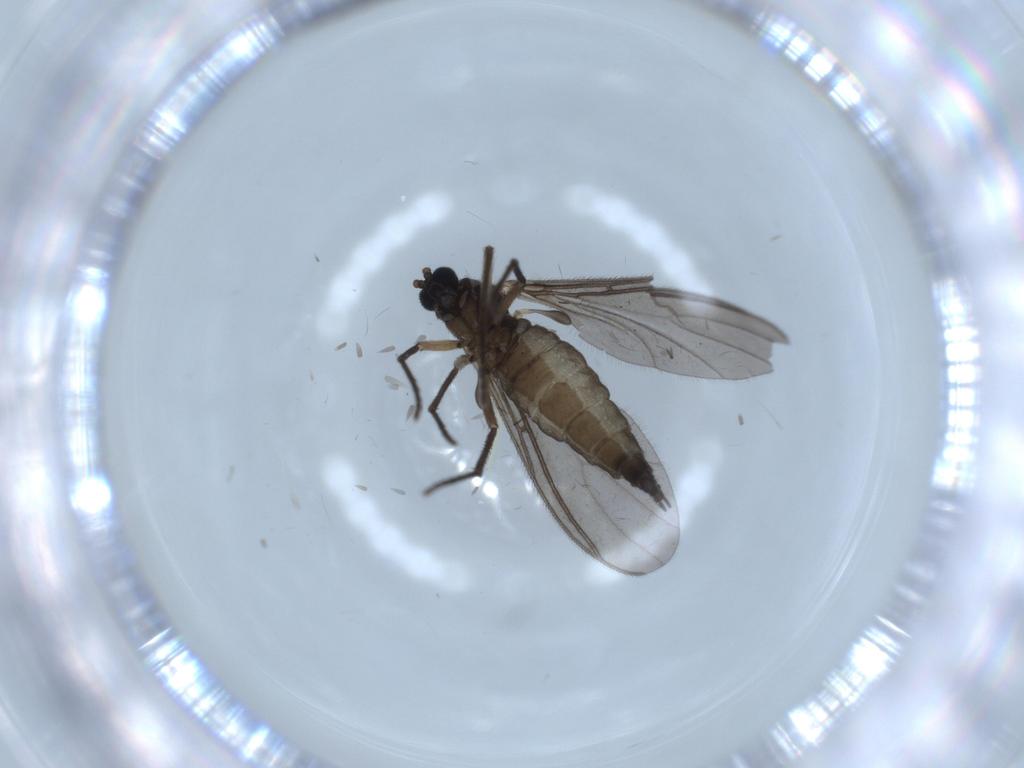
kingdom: Animalia
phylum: Arthropoda
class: Insecta
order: Diptera
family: Sciaridae
